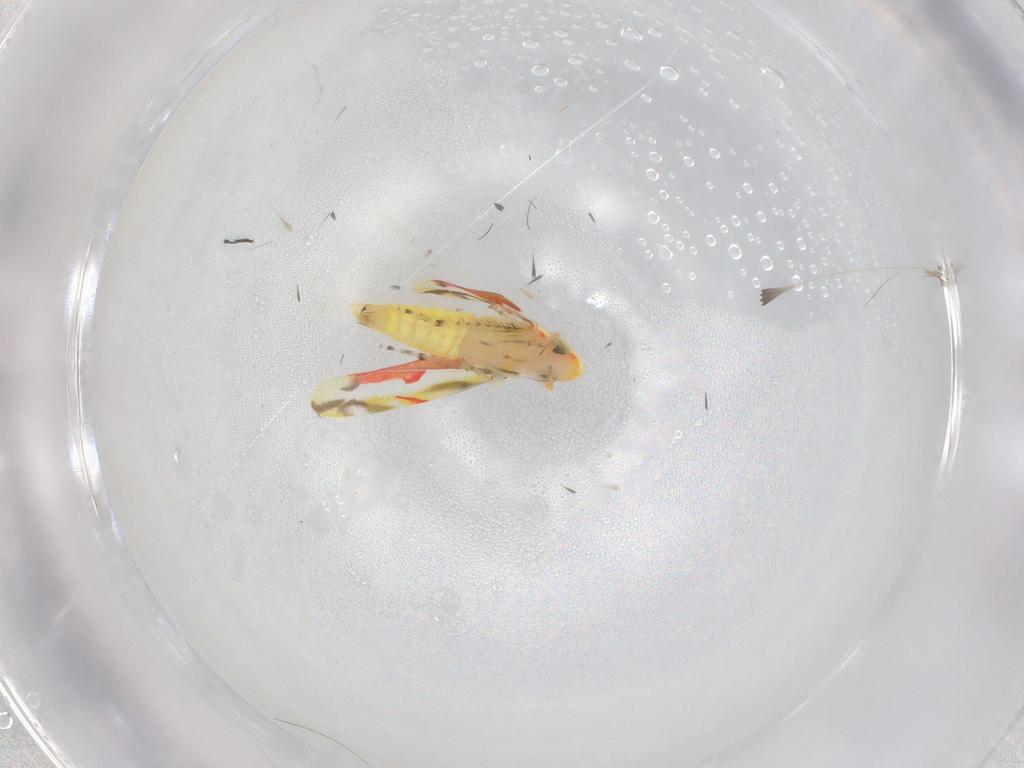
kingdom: Animalia
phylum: Arthropoda
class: Insecta
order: Hemiptera
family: Cicadellidae
